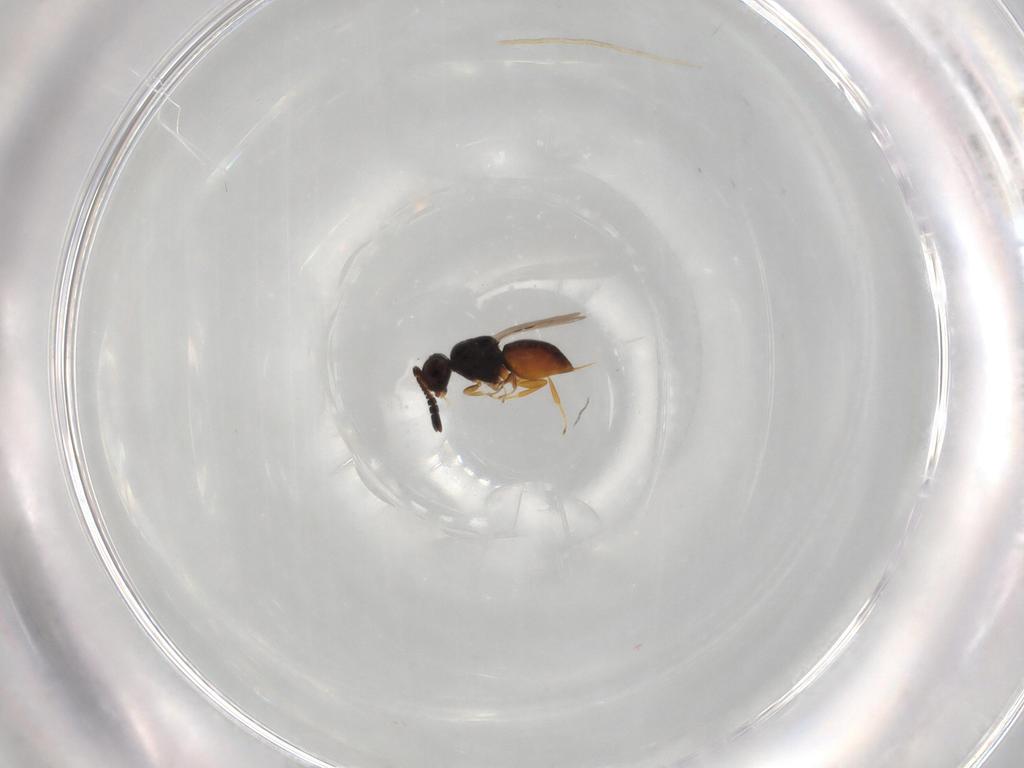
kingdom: Animalia
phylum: Arthropoda
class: Insecta
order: Hymenoptera
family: Ceraphronidae
